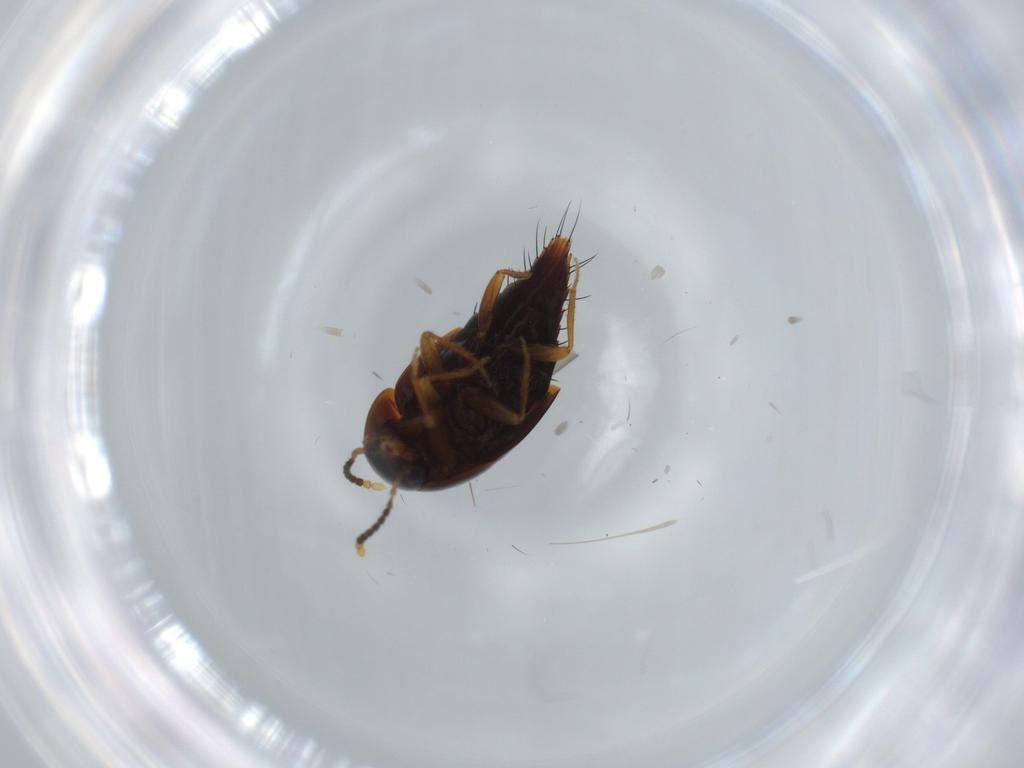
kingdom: Animalia
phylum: Arthropoda
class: Insecta
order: Coleoptera
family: Staphylinidae
